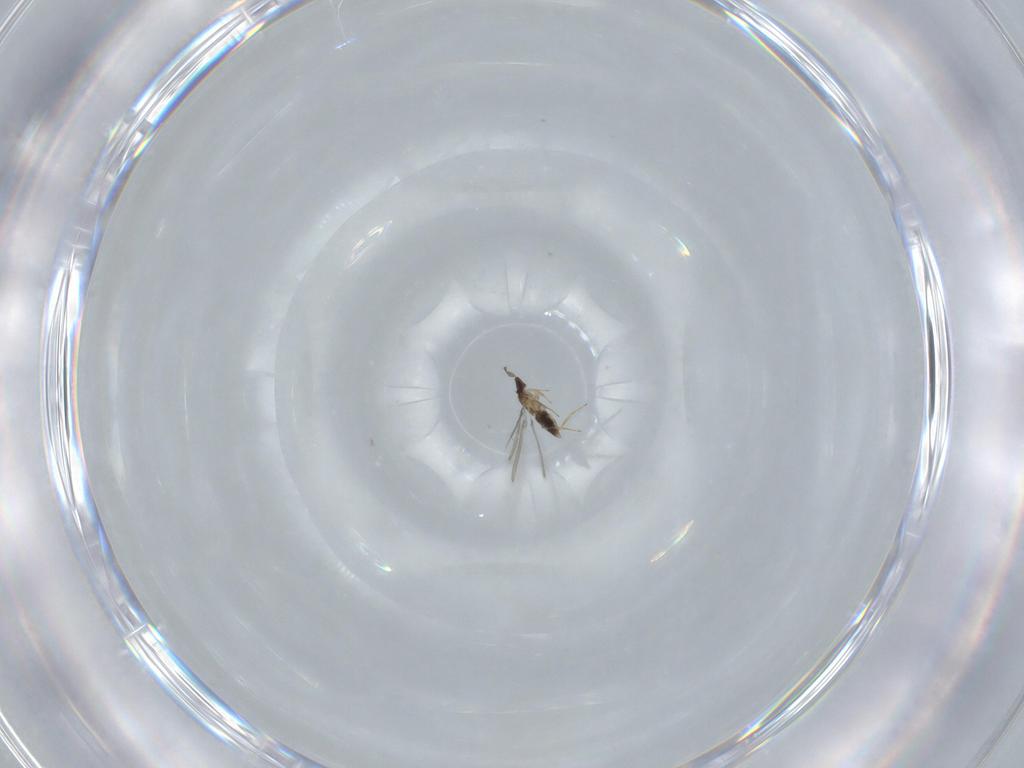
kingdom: Animalia
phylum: Arthropoda
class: Insecta
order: Hymenoptera
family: Mymaridae
